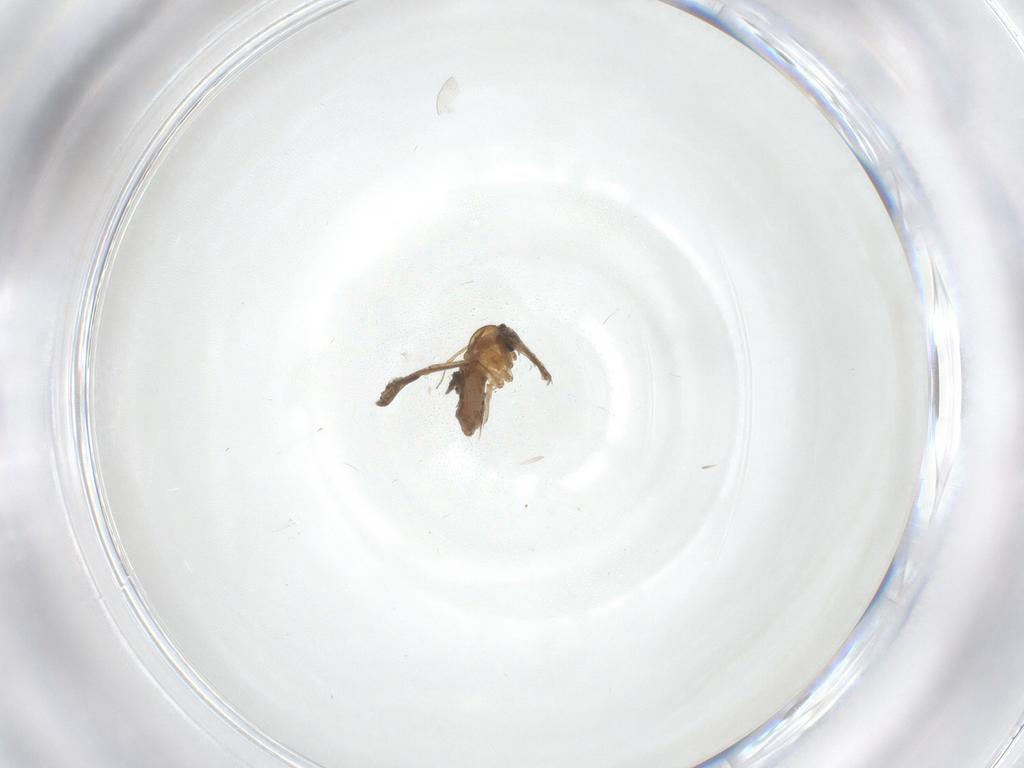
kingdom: Animalia
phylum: Arthropoda
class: Insecta
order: Diptera
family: Ceratopogonidae
